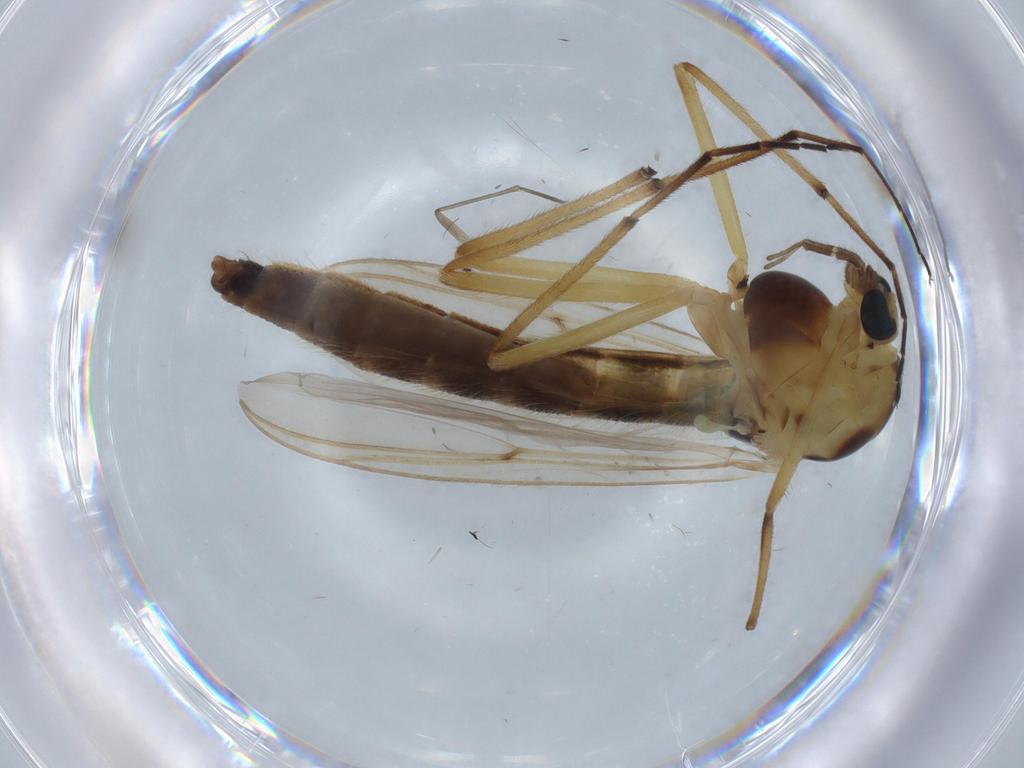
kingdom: Animalia
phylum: Arthropoda
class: Insecta
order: Diptera
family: Chironomidae
